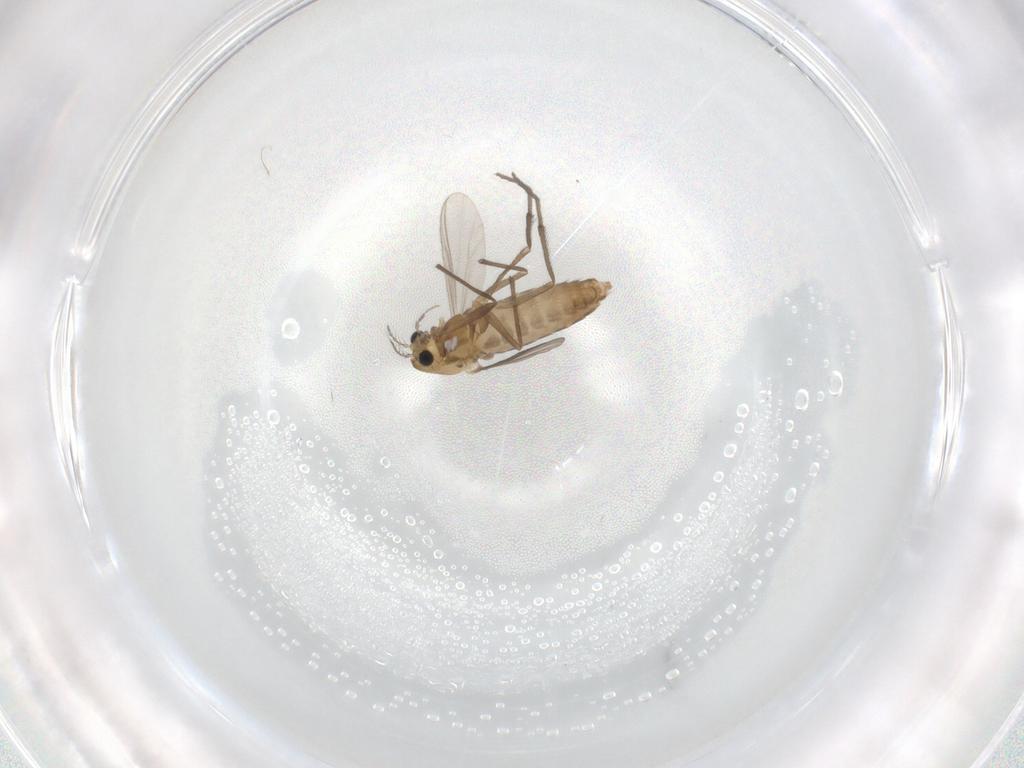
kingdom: Animalia
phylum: Arthropoda
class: Insecta
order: Diptera
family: Chironomidae
